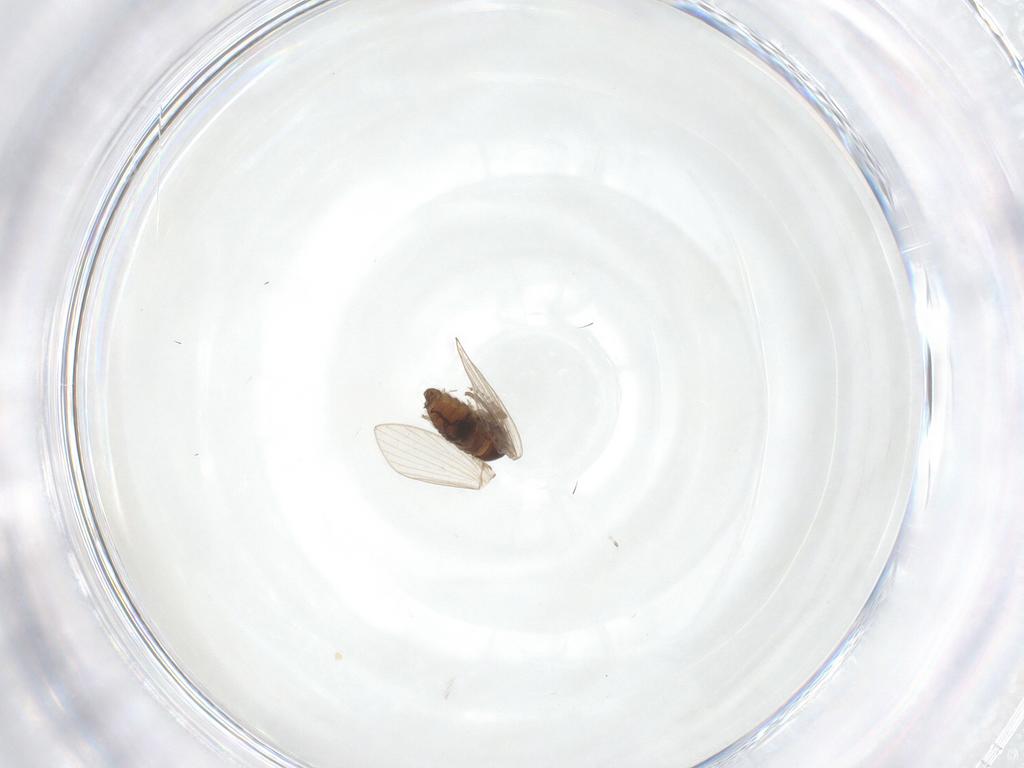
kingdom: Animalia
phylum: Arthropoda
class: Insecta
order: Diptera
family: Psychodidae
